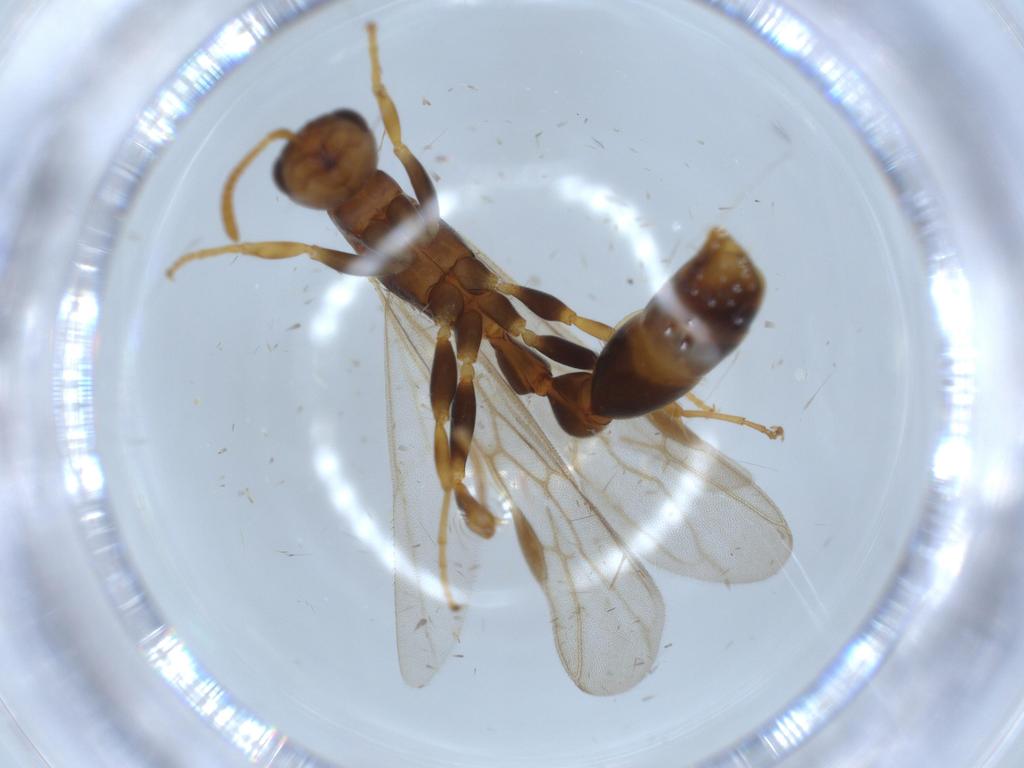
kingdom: Animalia
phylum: Arthropoda
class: Insecta
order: Hymenoptera
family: Formicidae
